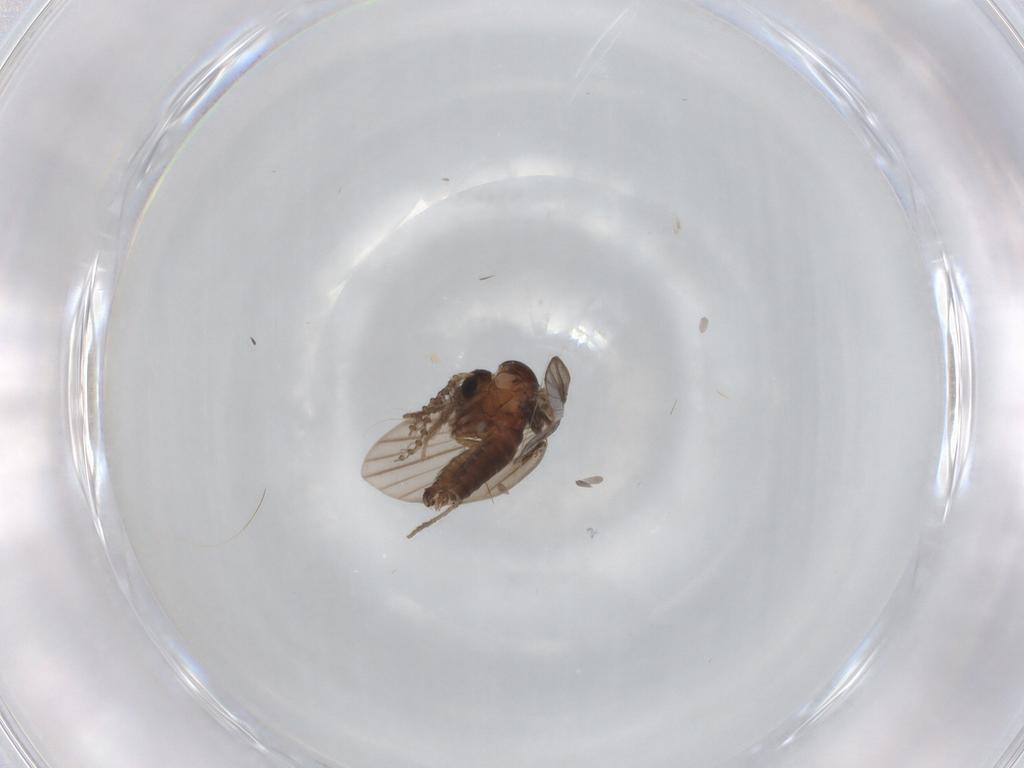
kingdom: Animalia
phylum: Arthropoda
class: Insecta
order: Diptera
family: Psychodidae
